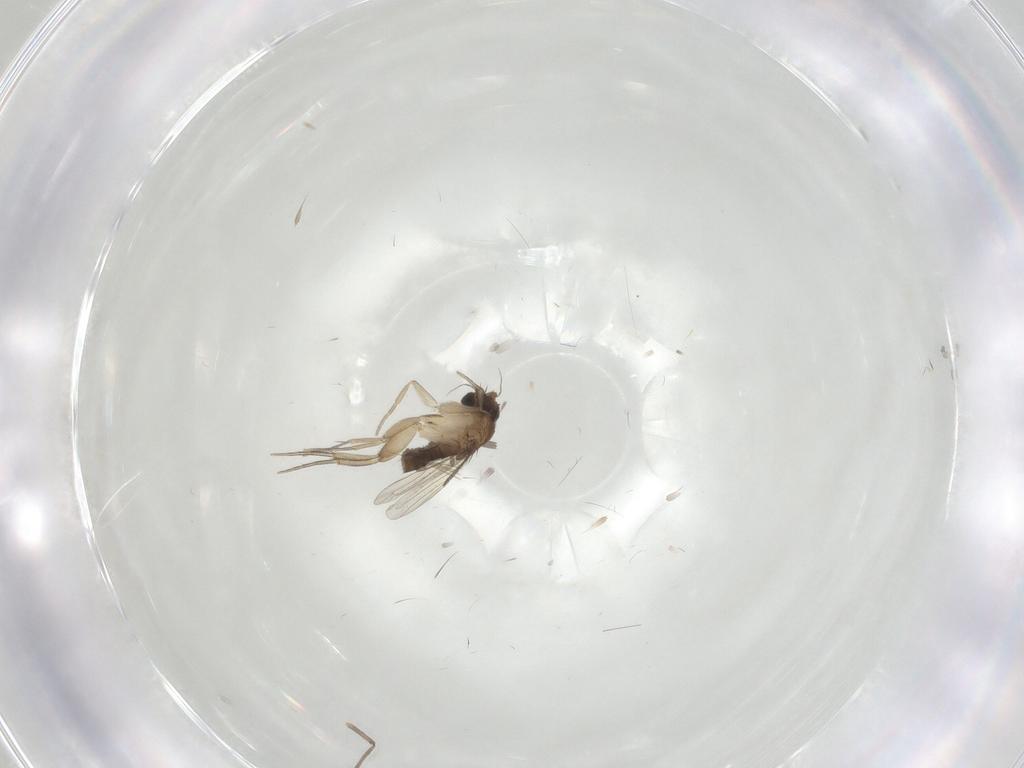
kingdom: Animalia
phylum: Arthropoda
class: Insecta
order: Diptera
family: Phoridae
